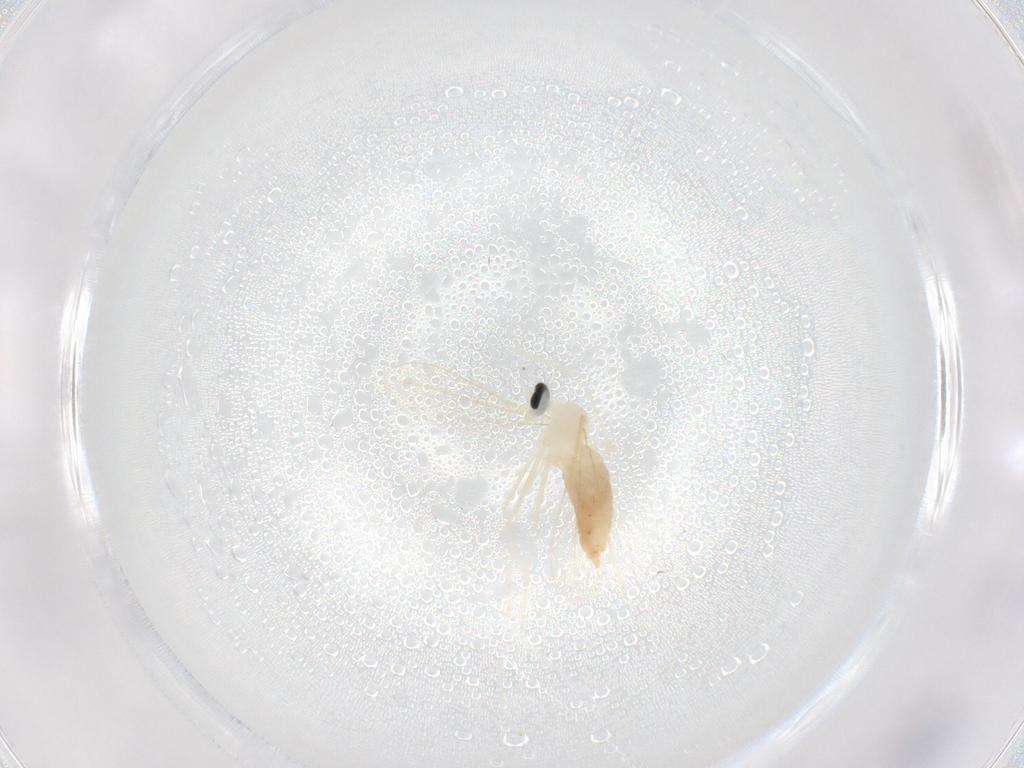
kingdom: Animalia
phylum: Arthropoda
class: Insecta
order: Diptera
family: Cecidomyiidae
